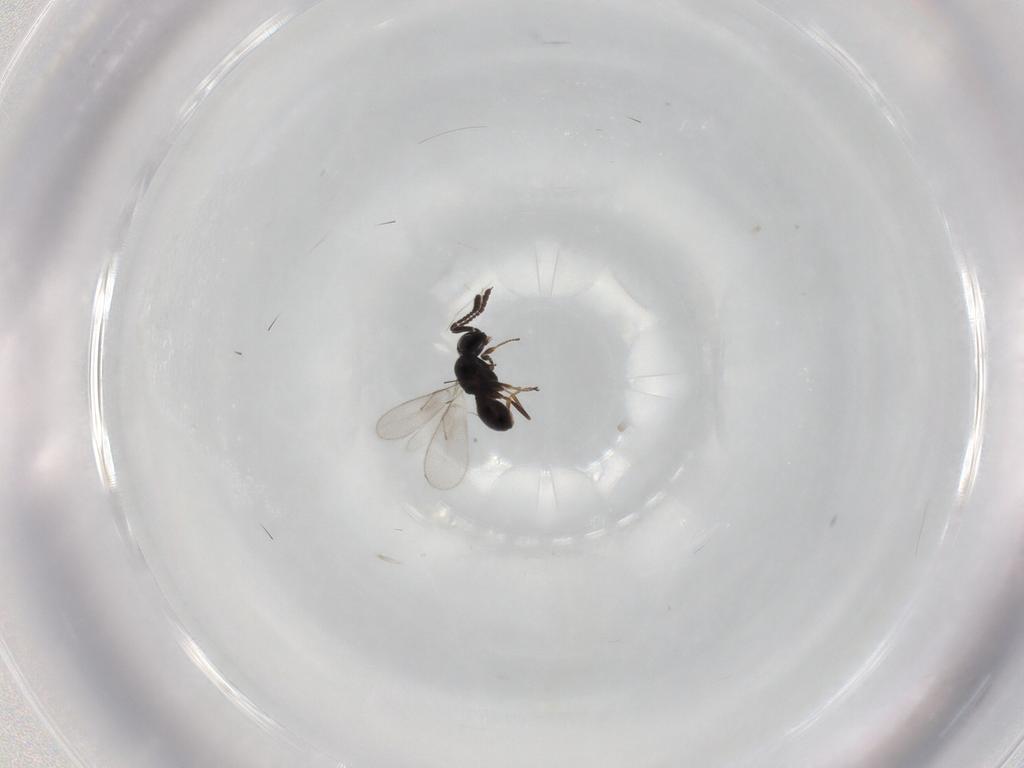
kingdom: Animalia
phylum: Arthropoda
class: Insecta
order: Hymenoptera
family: Scelionidae
